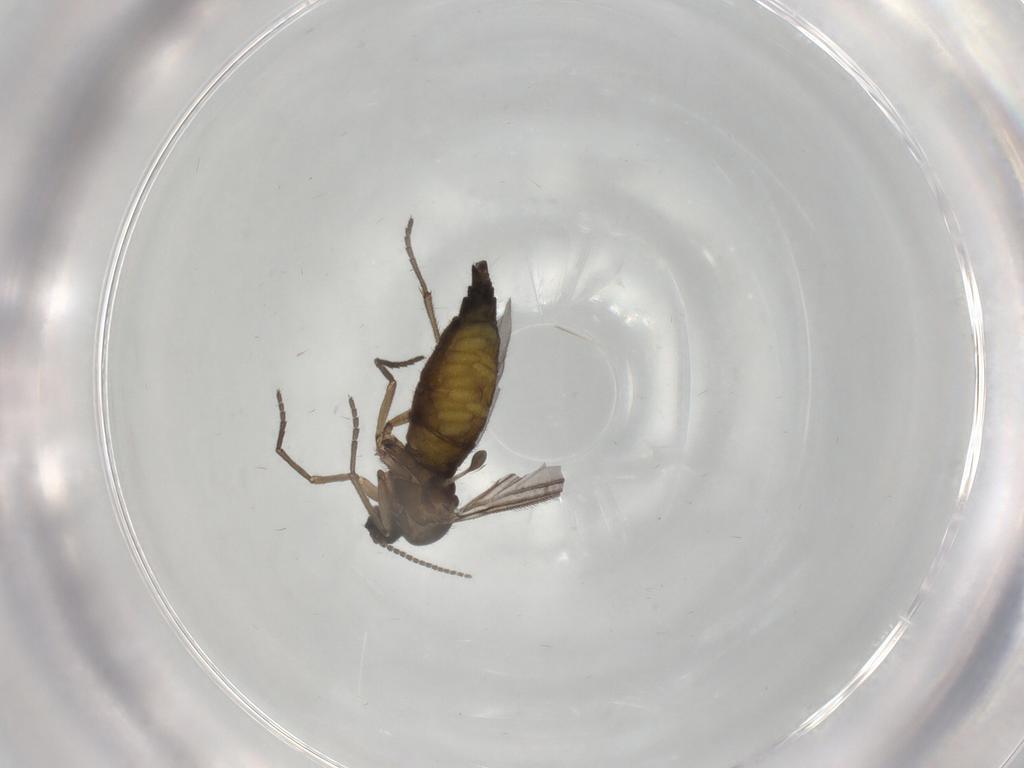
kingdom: Animalia
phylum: Arthropoda
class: Insecta
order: Diptera
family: Sciaridae
